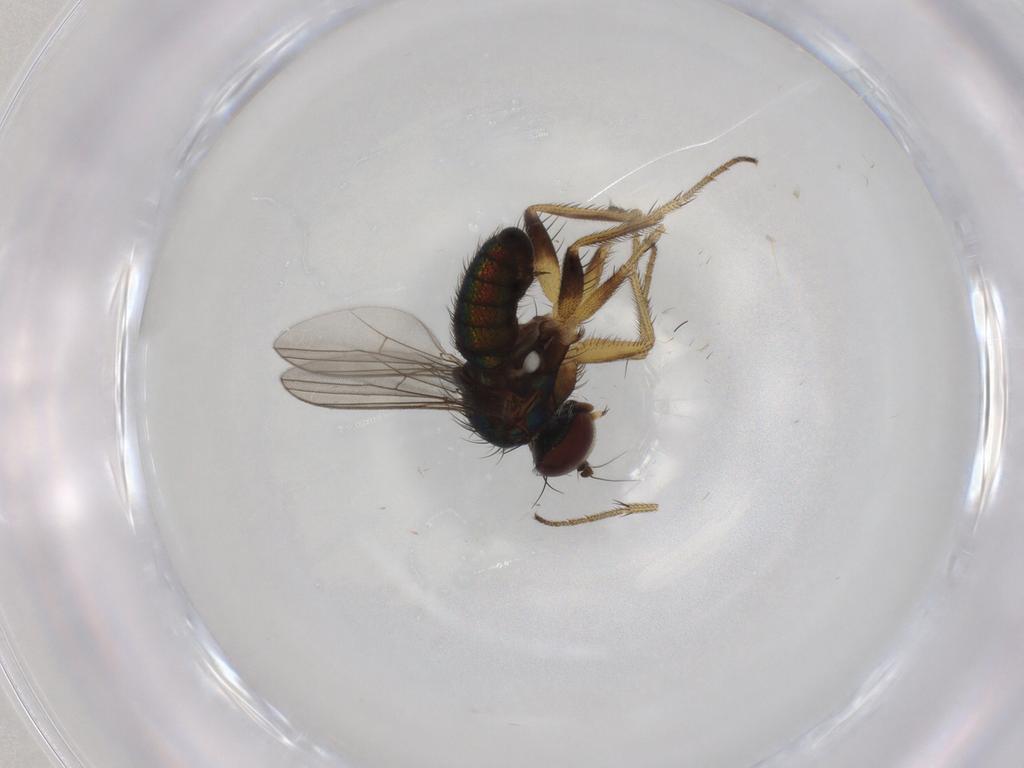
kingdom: Animalia
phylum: Arthropoda
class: Insecta
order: Diptera
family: Dolichopodidae
